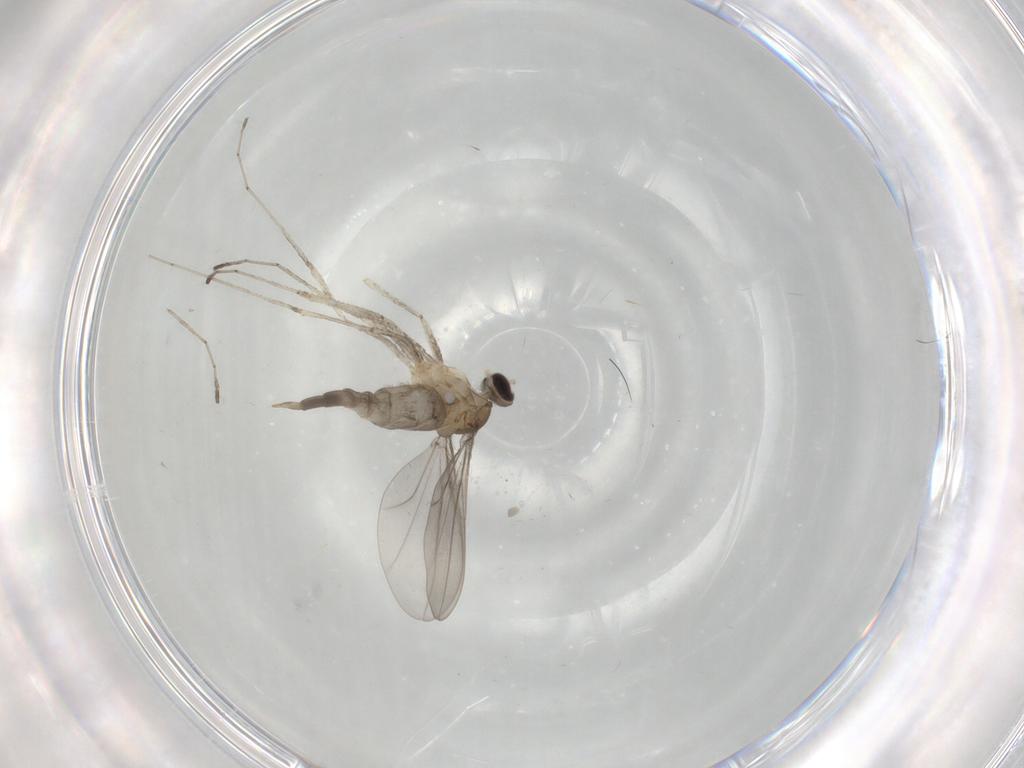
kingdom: Animalia
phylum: Arthropoda
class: Insecta
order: Diptera
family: Cecidomyiidae
